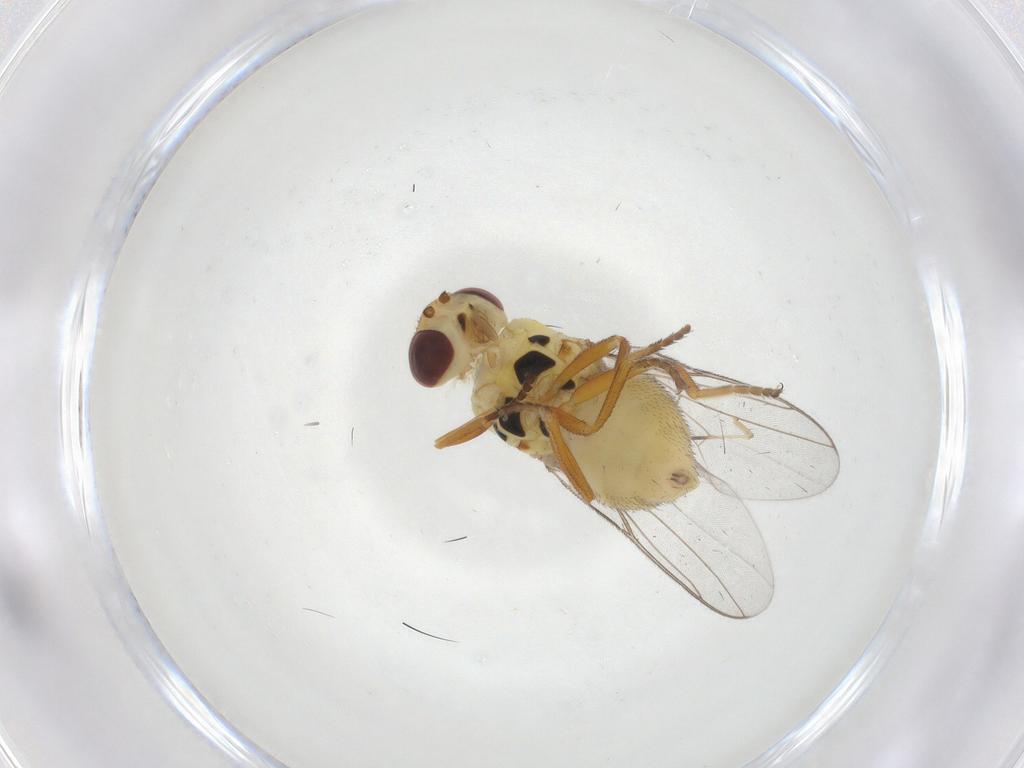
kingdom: Animalia
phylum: Arthropoda
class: Insecta
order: Diptera
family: Chloropidae
